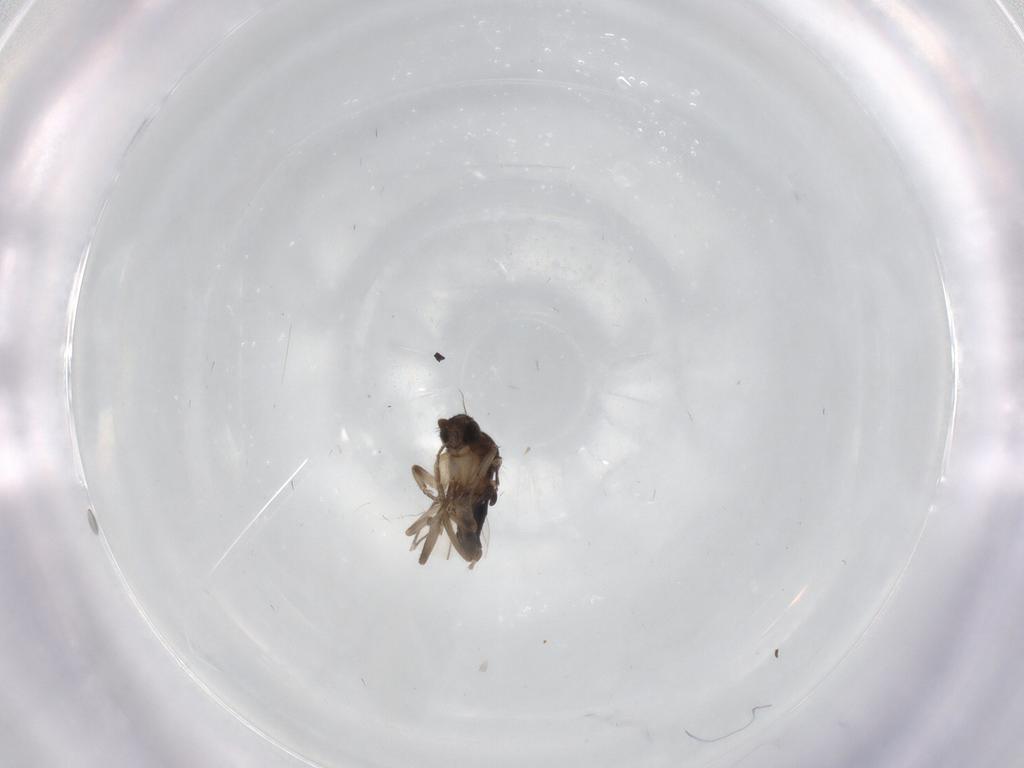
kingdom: Animalia
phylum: Arthropoda
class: Insecta
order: Diptera
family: Psychodidae
